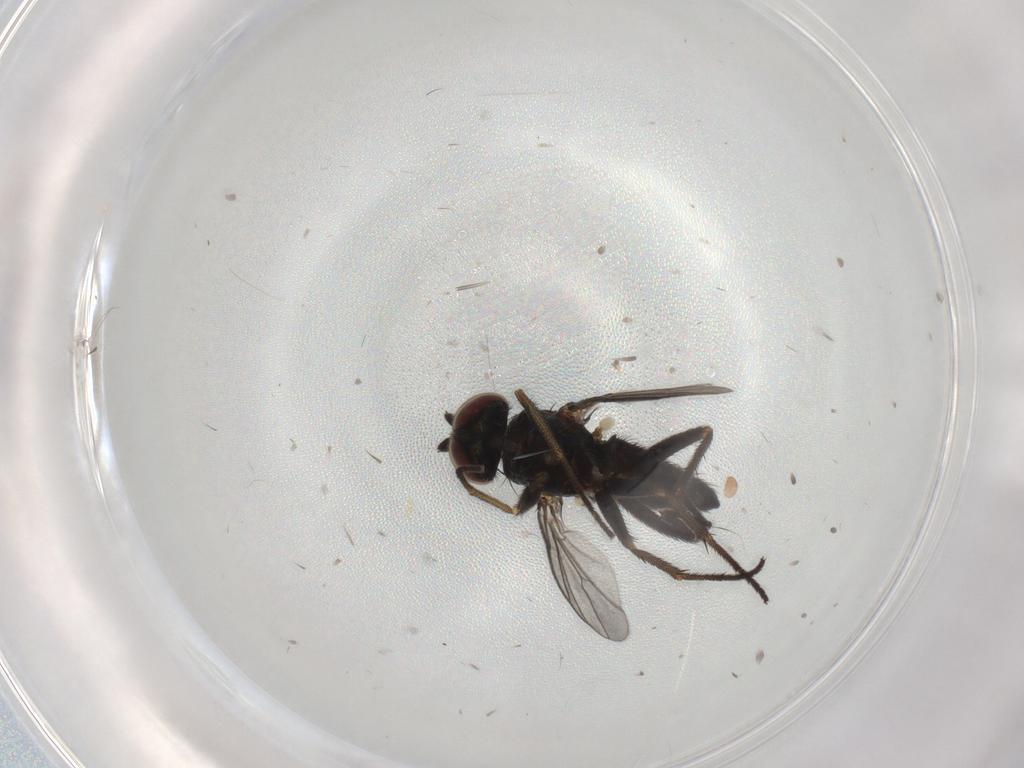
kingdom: Animalia
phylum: Arthropoda
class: Insecta
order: Diptera
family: Dolichopodidae
